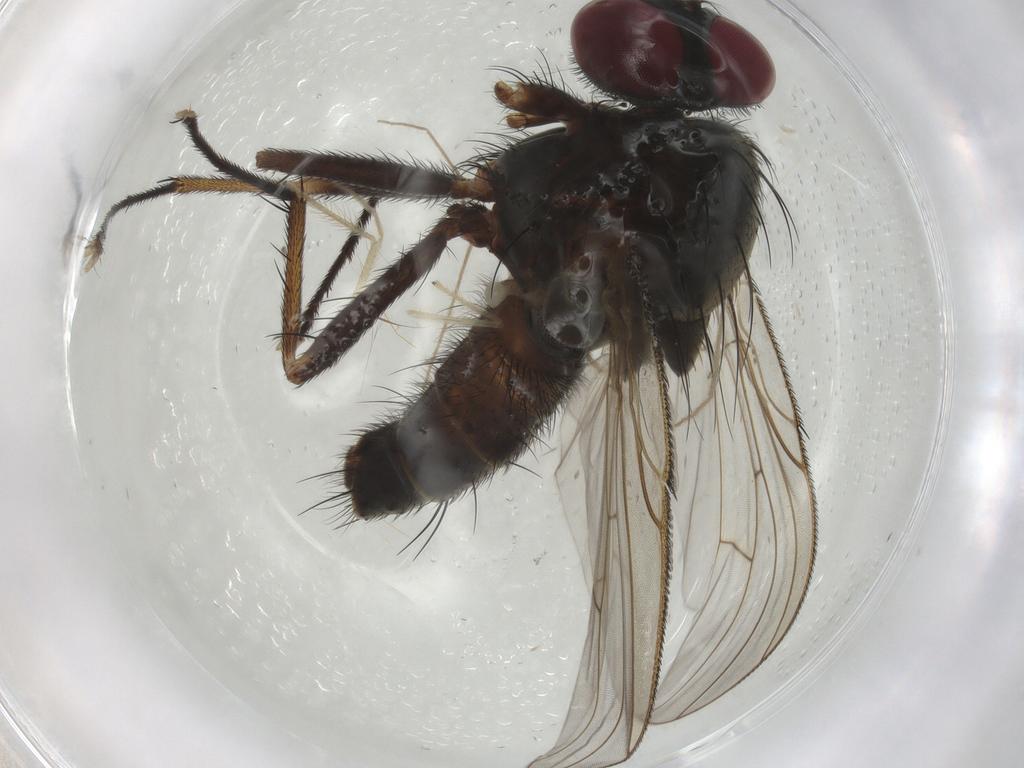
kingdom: Animalia
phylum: Arthropoda
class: Insecta
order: Diptera
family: Muscidae
